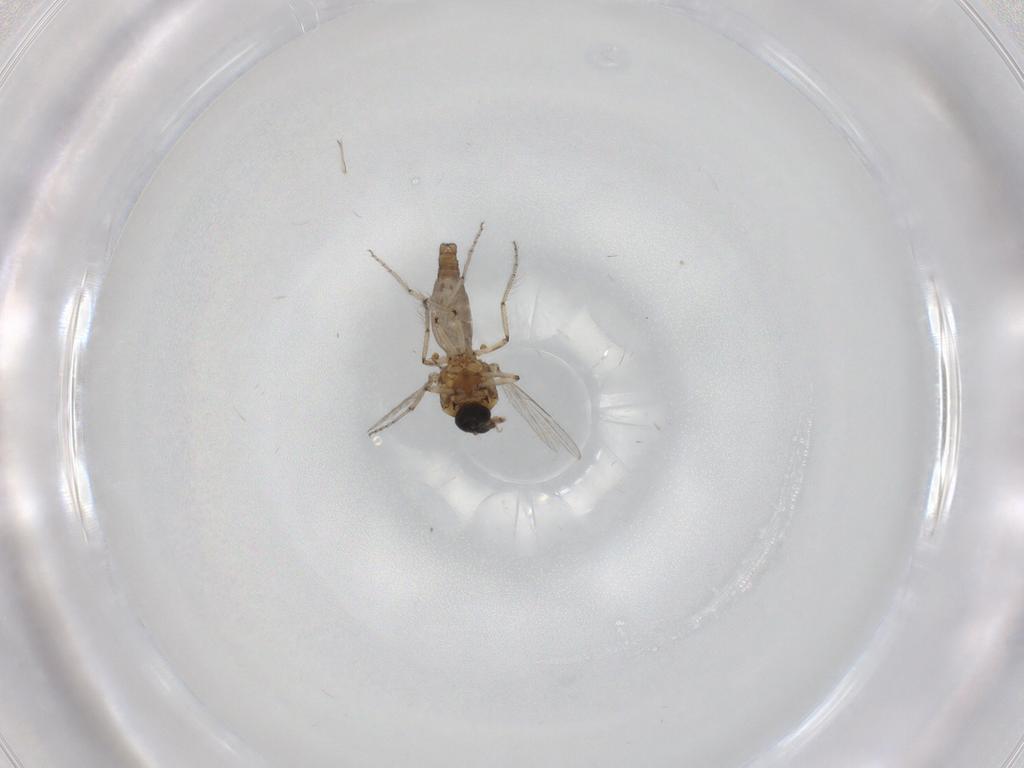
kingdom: Animalia
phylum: Arthropoda
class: Insecta
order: Diptera
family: Ceratopogonidae
